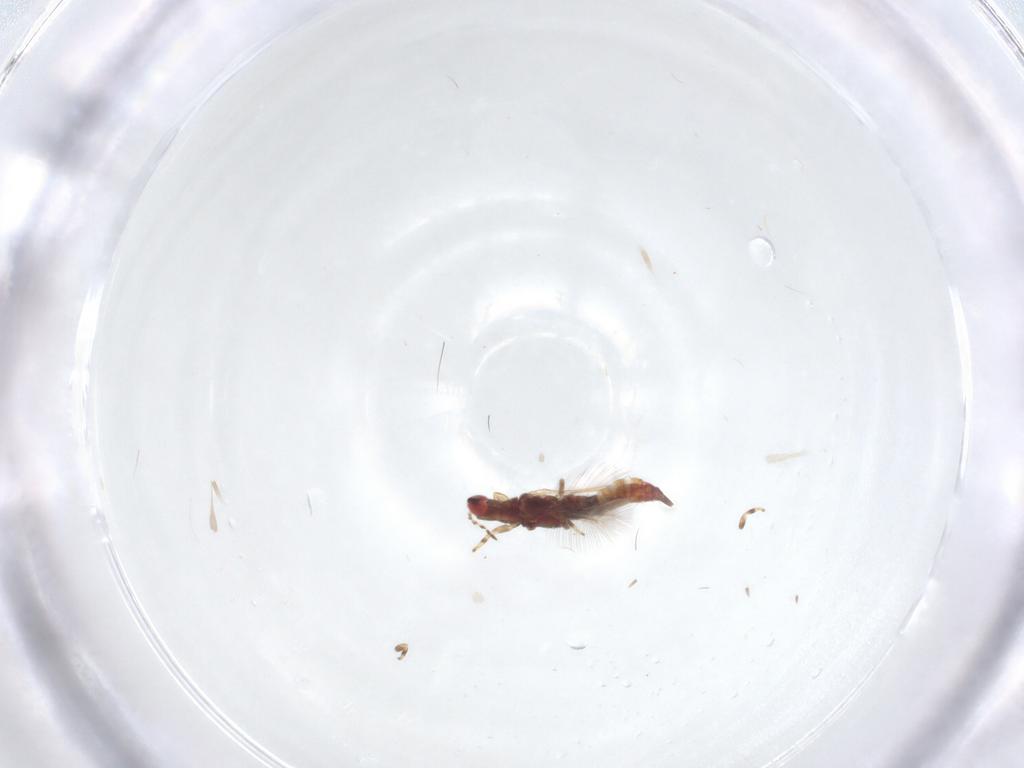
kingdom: Animalia
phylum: Arthropoda
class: Insecta
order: Thysanoptera
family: Phlaeothripidae
